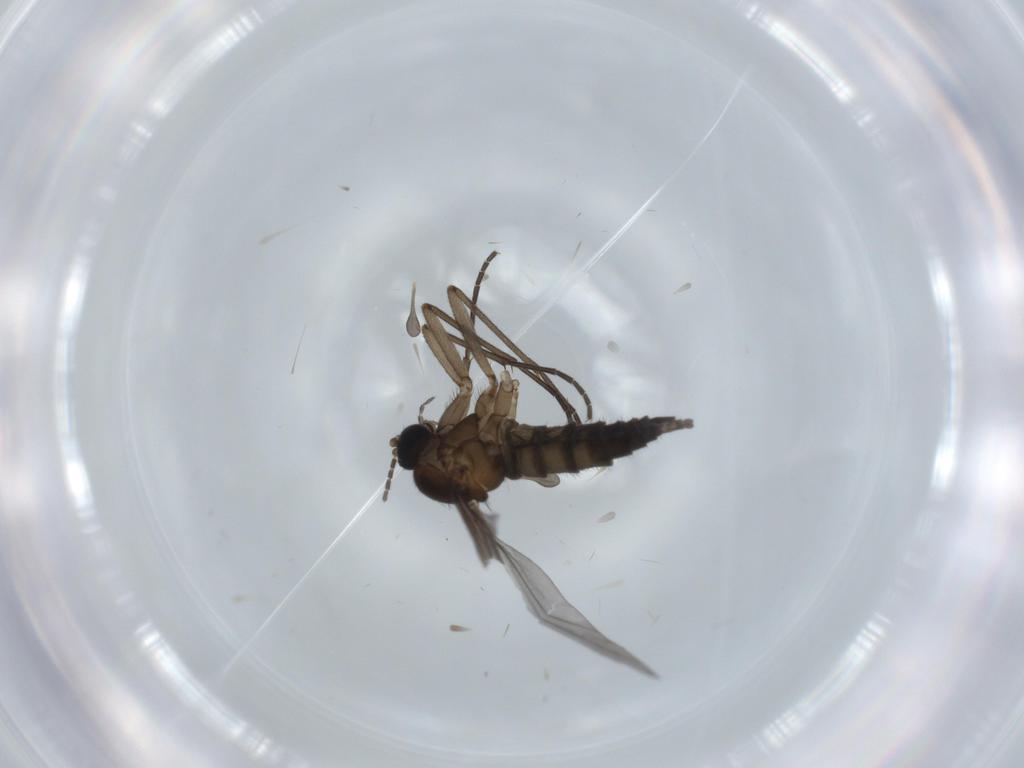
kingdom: Animalia
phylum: Arthropoda
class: Insecta
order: Diptera
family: Sciaridae
